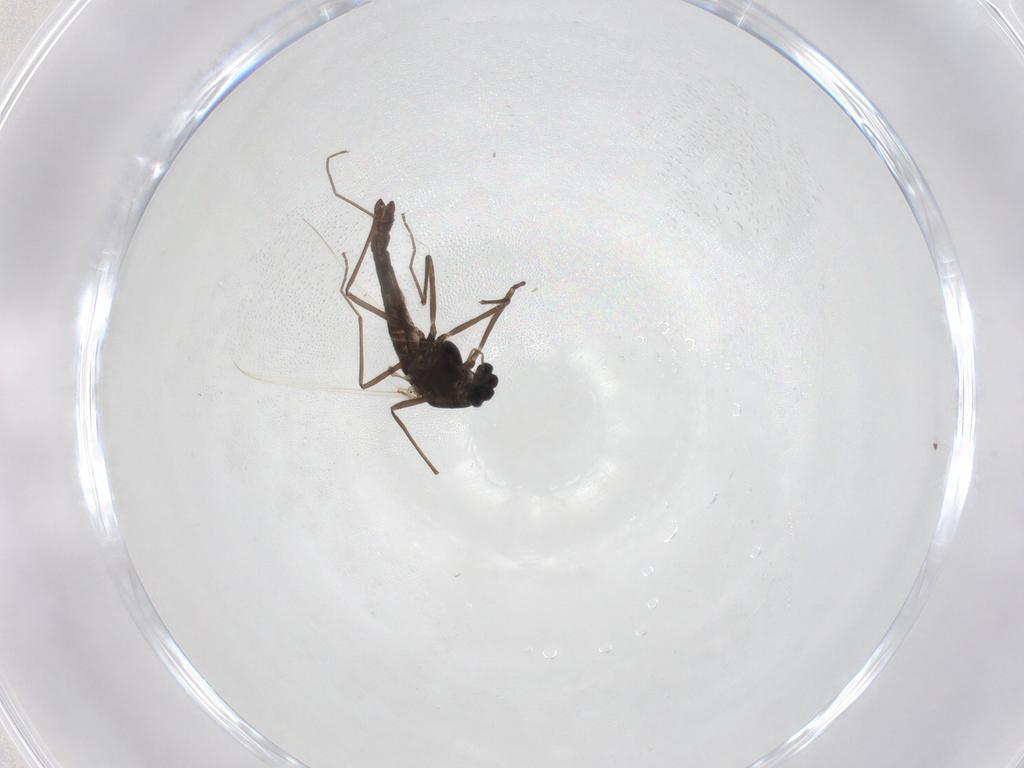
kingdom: Animalia
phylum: Arthropoda
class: Insecta
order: Diptera
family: Chironomidae
